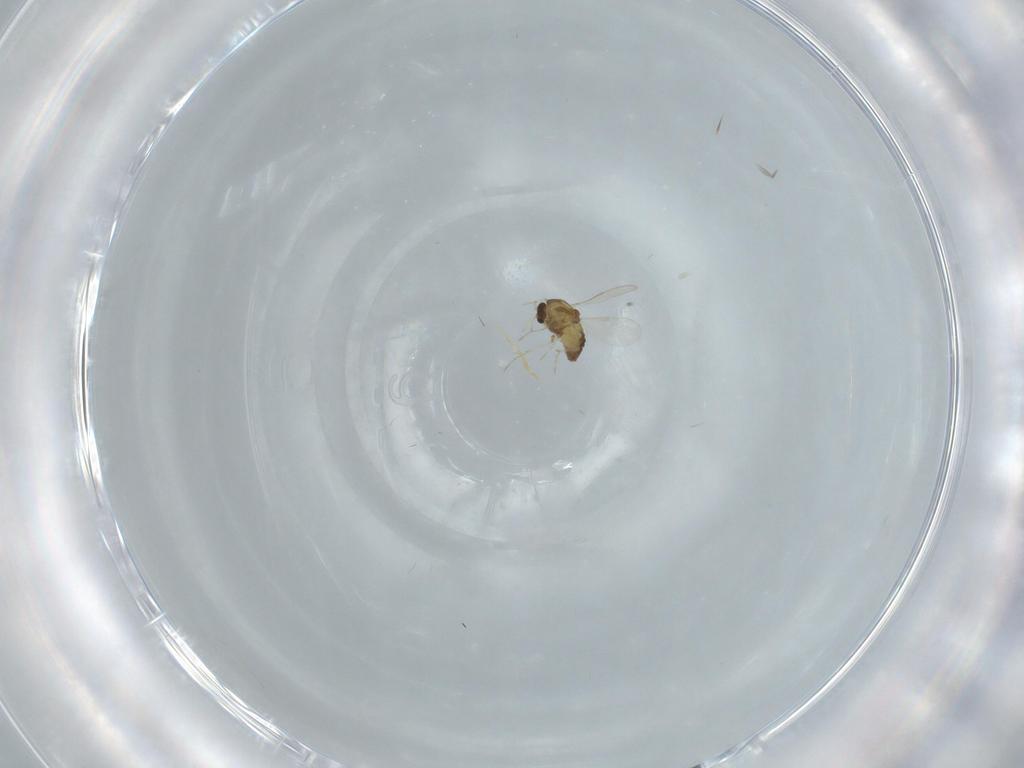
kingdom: Animalia
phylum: Arthropoda
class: Insecta
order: Diptera
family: Chironomidae
